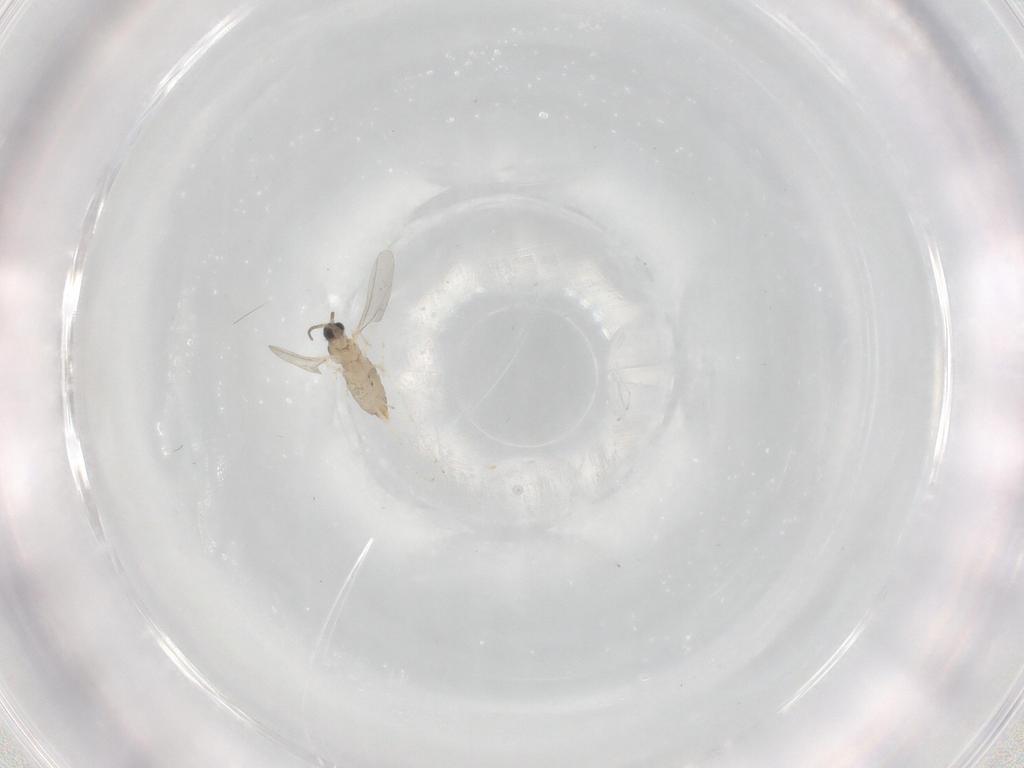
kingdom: Animalia
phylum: Arthropoda
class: Insecta
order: Diptera
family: Cecidomyiidae
